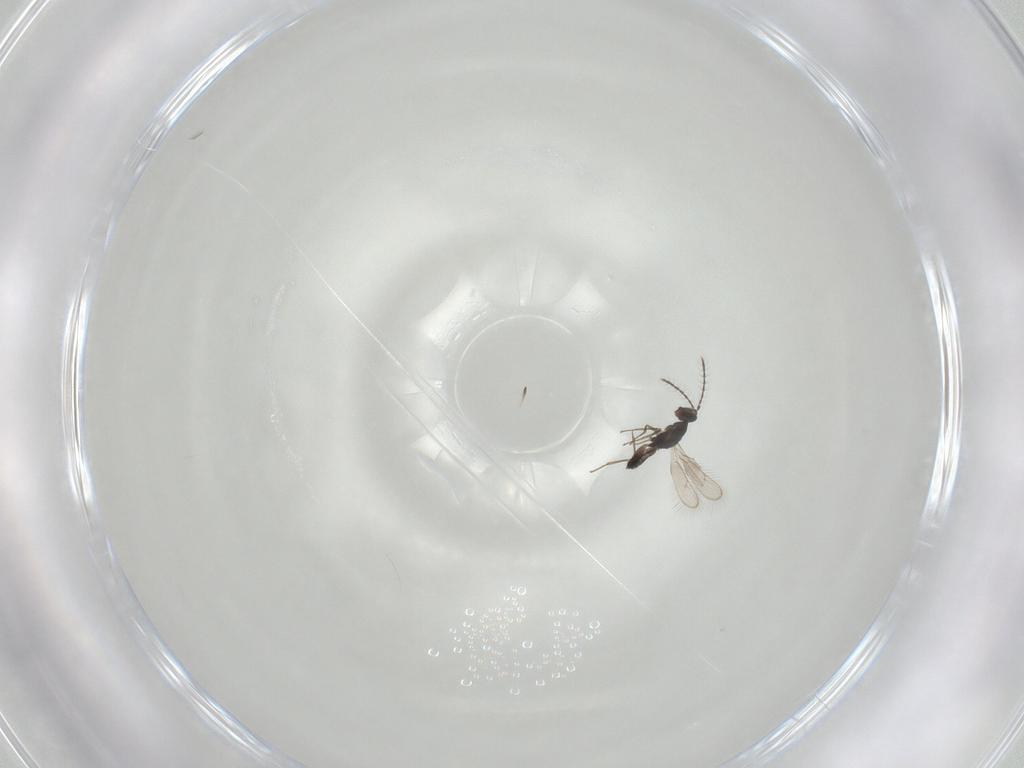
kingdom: Animalia
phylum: Arthropoda
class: Insecta
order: Hymenoptera
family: Pteromalidae
